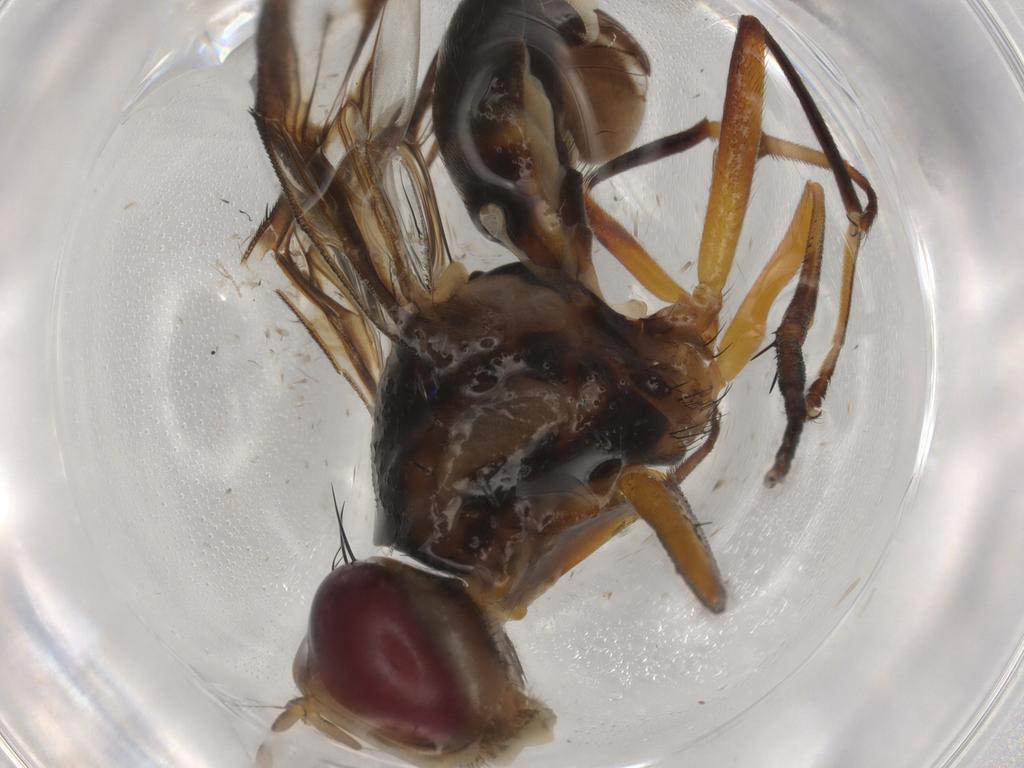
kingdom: Animalia
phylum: Arthropoda
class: Insecta
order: Diptera
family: Tephritidae
